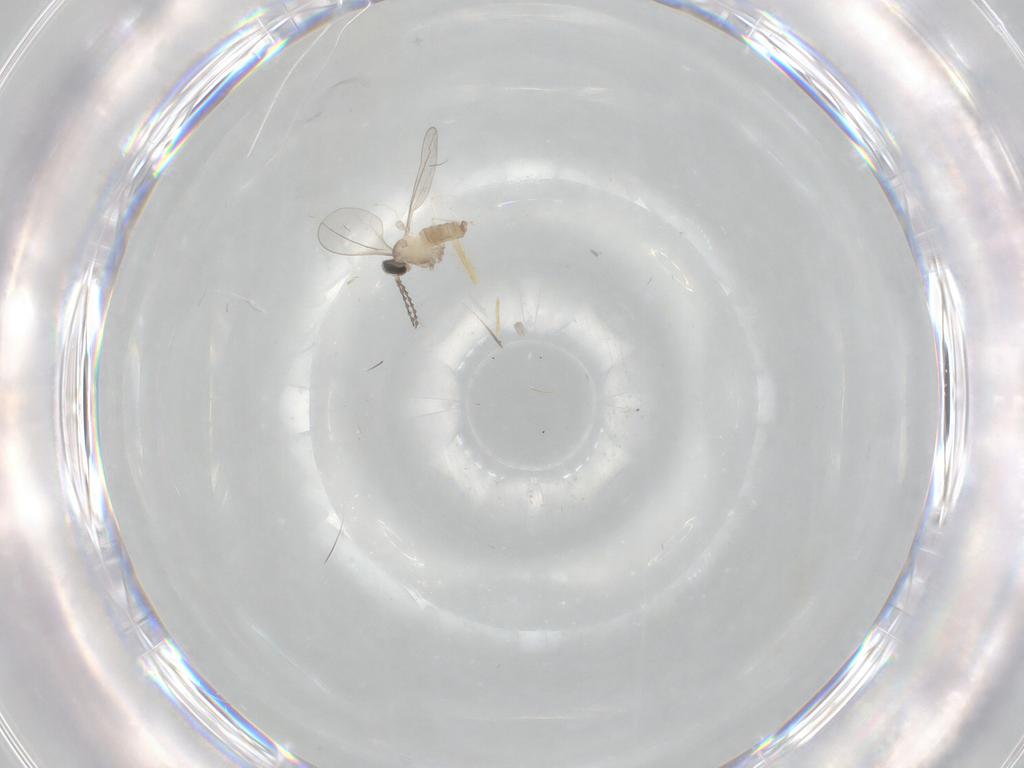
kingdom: Animalia
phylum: Arthropoda
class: Insecta
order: Diptera
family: Cecidomyiidae
